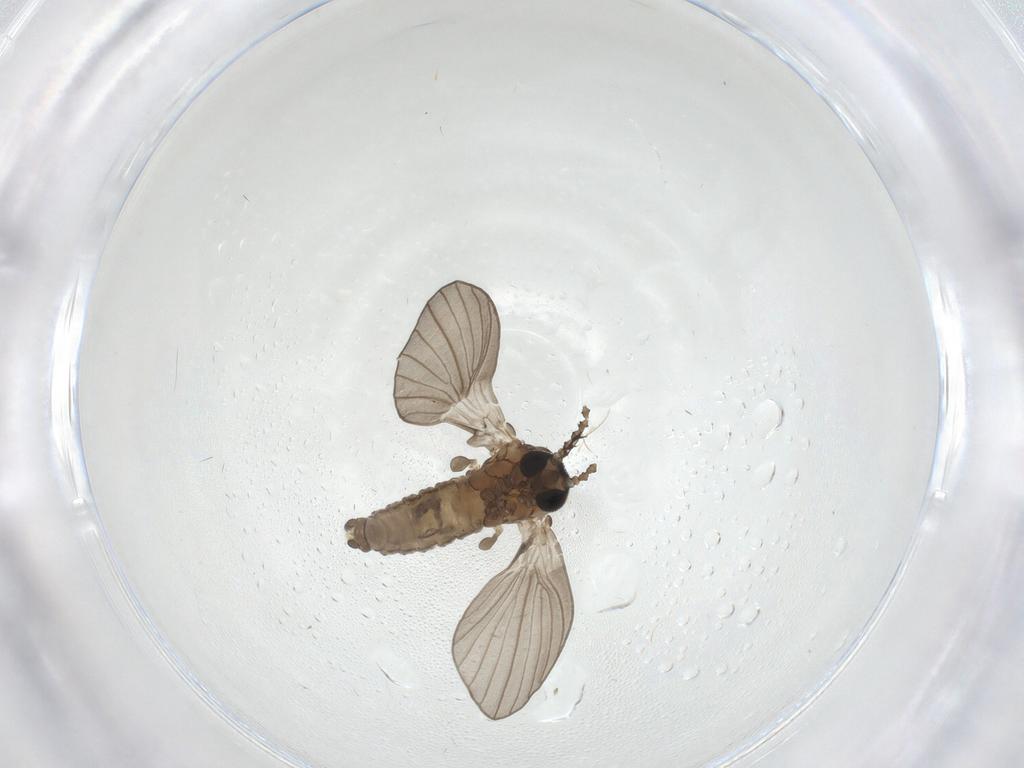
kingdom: Animalia
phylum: Arthropoda
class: Insecta
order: Diptera
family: Psychodidae
